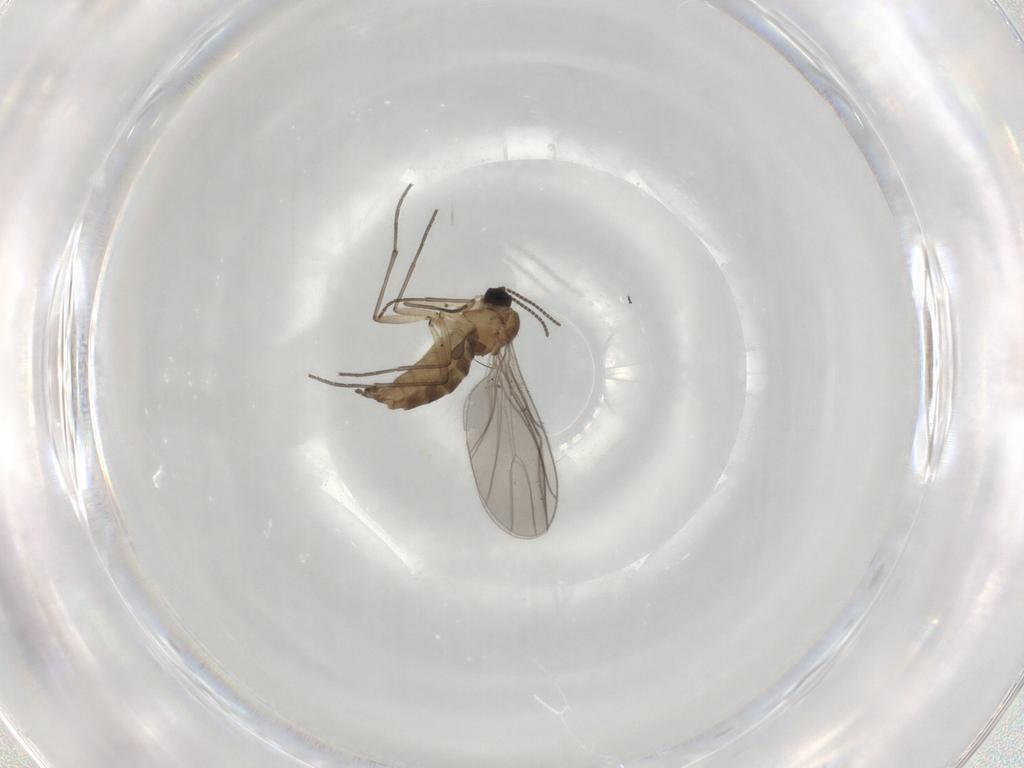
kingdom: Animalia
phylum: Arthropoda
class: Insecta
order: Diptera
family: Sciaridae
